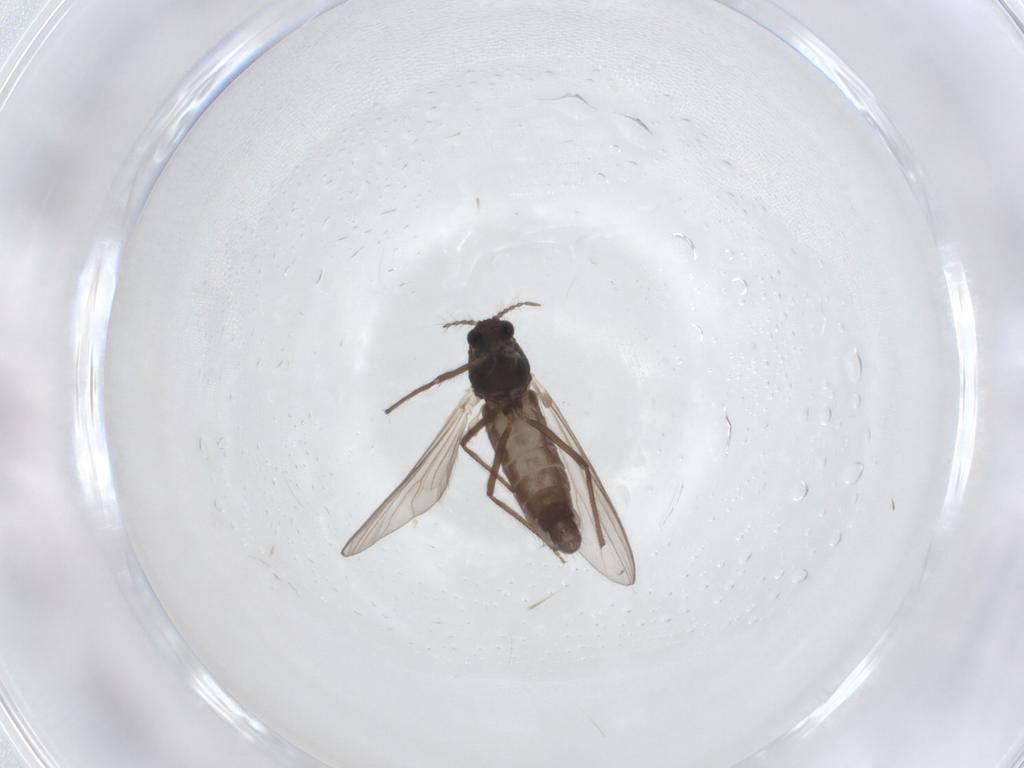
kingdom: Animalia
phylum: Arthropoda
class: Insecta
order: Diptera
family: Chironomidae
